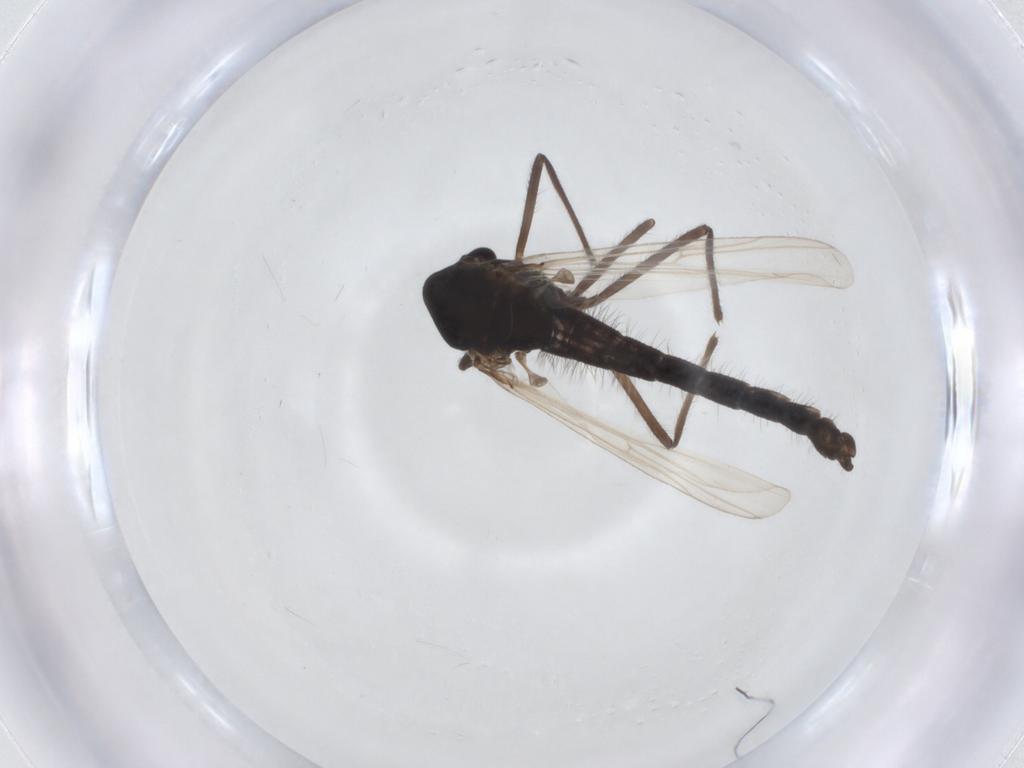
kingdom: Animalia
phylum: Arthropoda
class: Insecta
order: Diptera
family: Chironomidae
